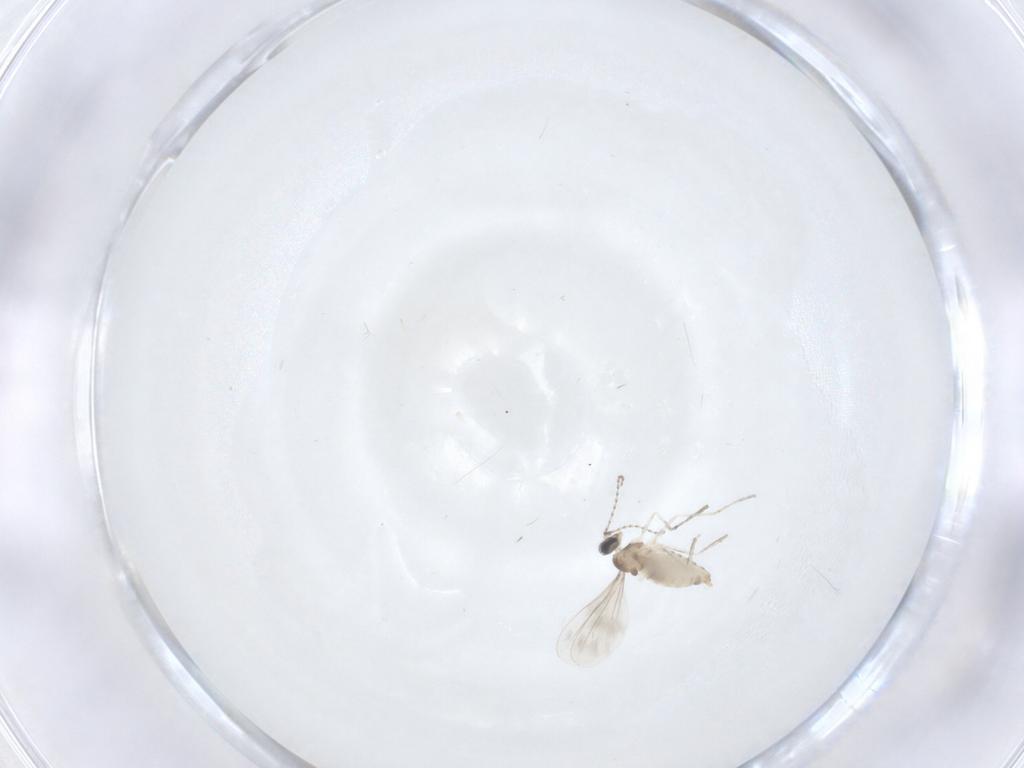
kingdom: Animalia
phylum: Arthropoda
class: Insecta
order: Diptera
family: Cecidomyiidae
